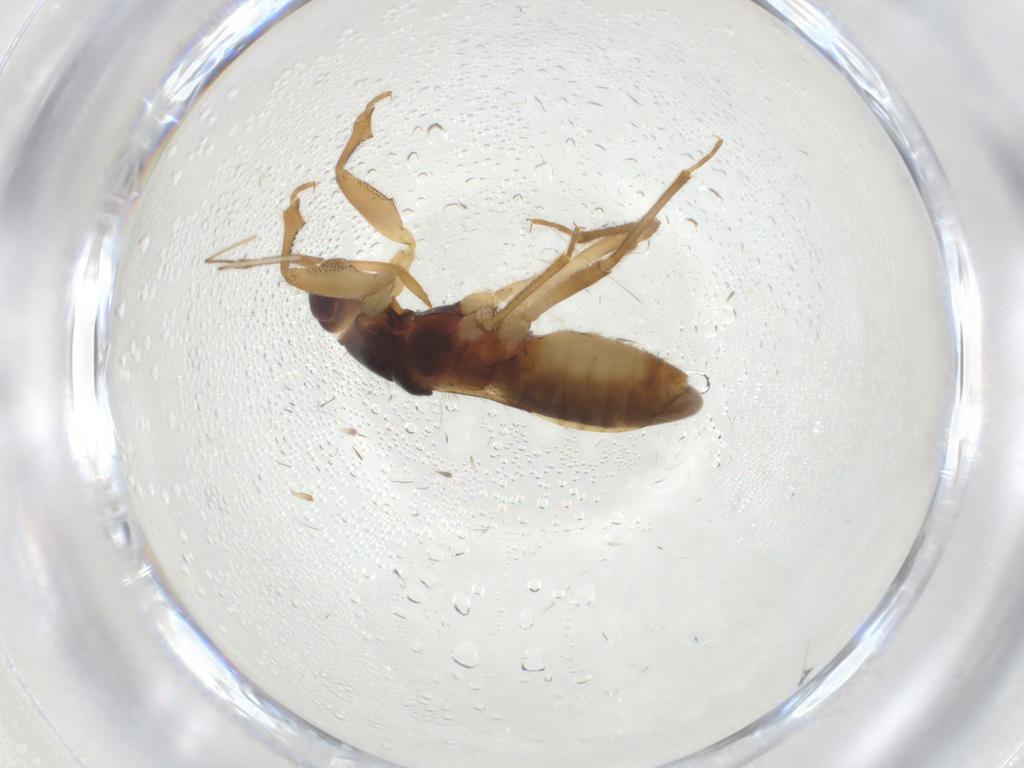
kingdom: Animalia
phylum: Arthropoda
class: Insecta
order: Hemiptera
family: Nabidae
